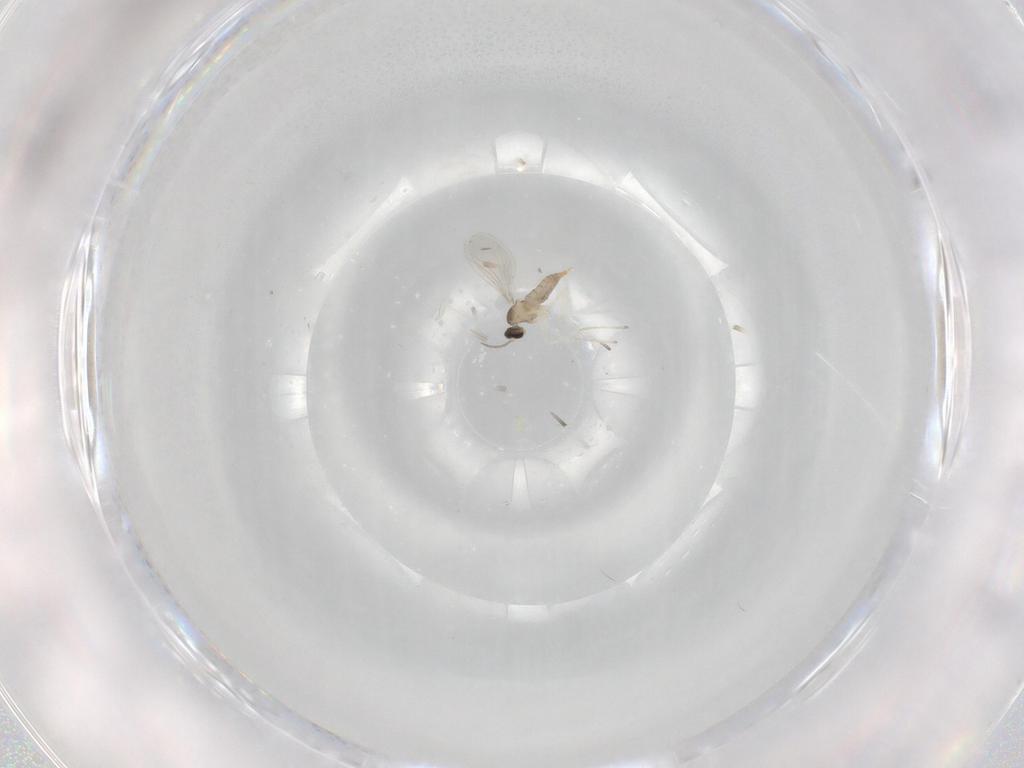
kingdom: Animalia
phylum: Arthropoda
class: Insecta
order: Diptera
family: Cecidomyiidae
